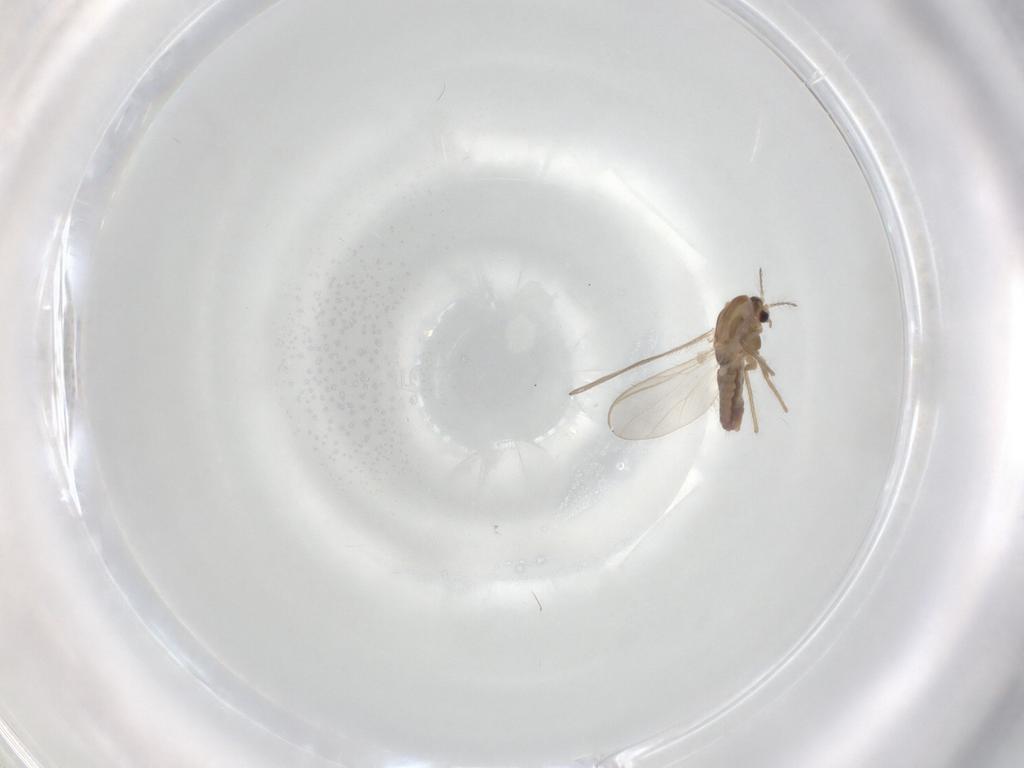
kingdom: Animalia
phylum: Arthropoda
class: Insecta
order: Diptera
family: Chironomidae
